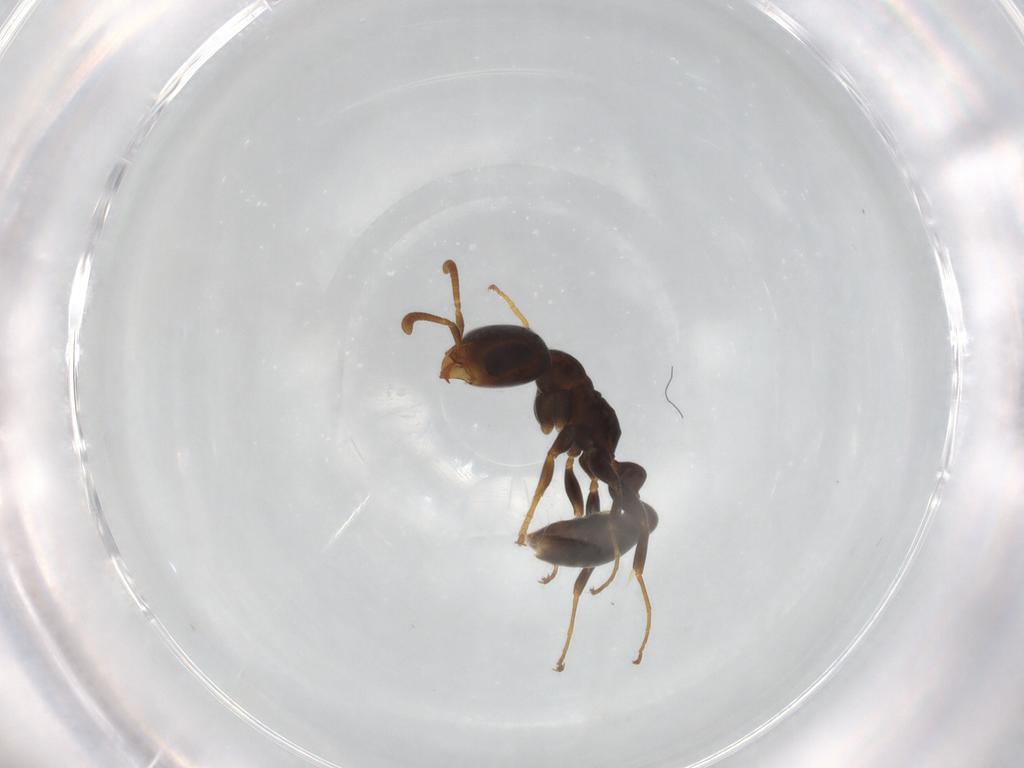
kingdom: Animalia
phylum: Arthropoda
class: Insecta
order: Hymenoptera
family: Formicidae
